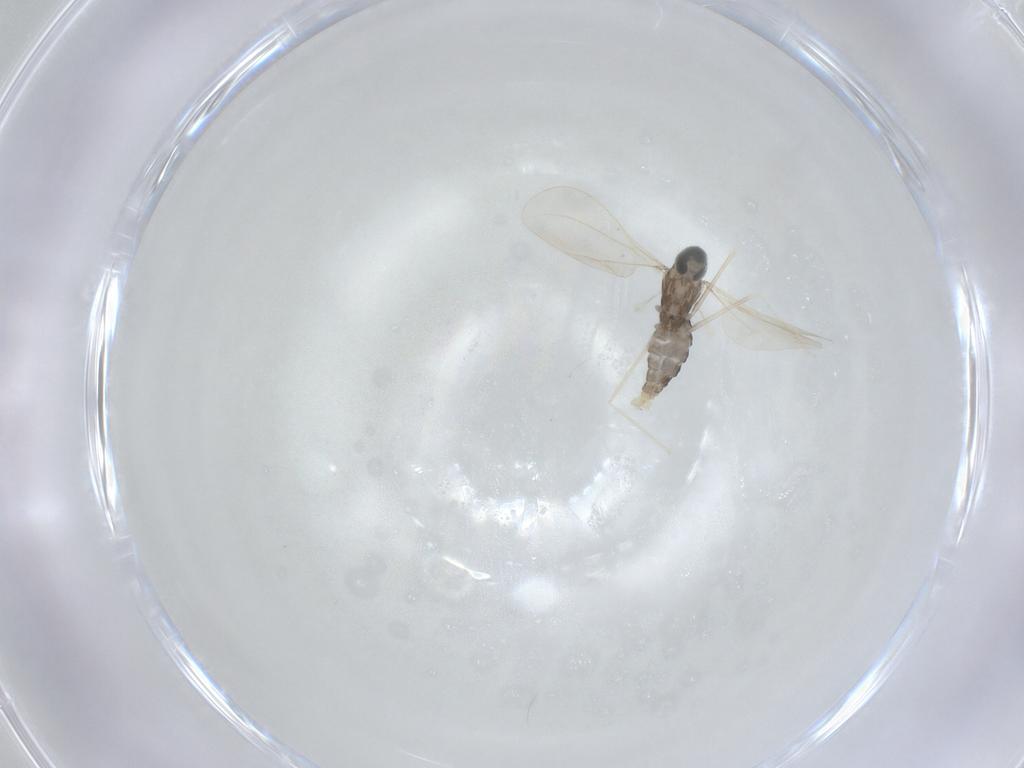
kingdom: Animalia
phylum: Arthropoda
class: Insecta
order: Diptera
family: Cecidomyiidae
